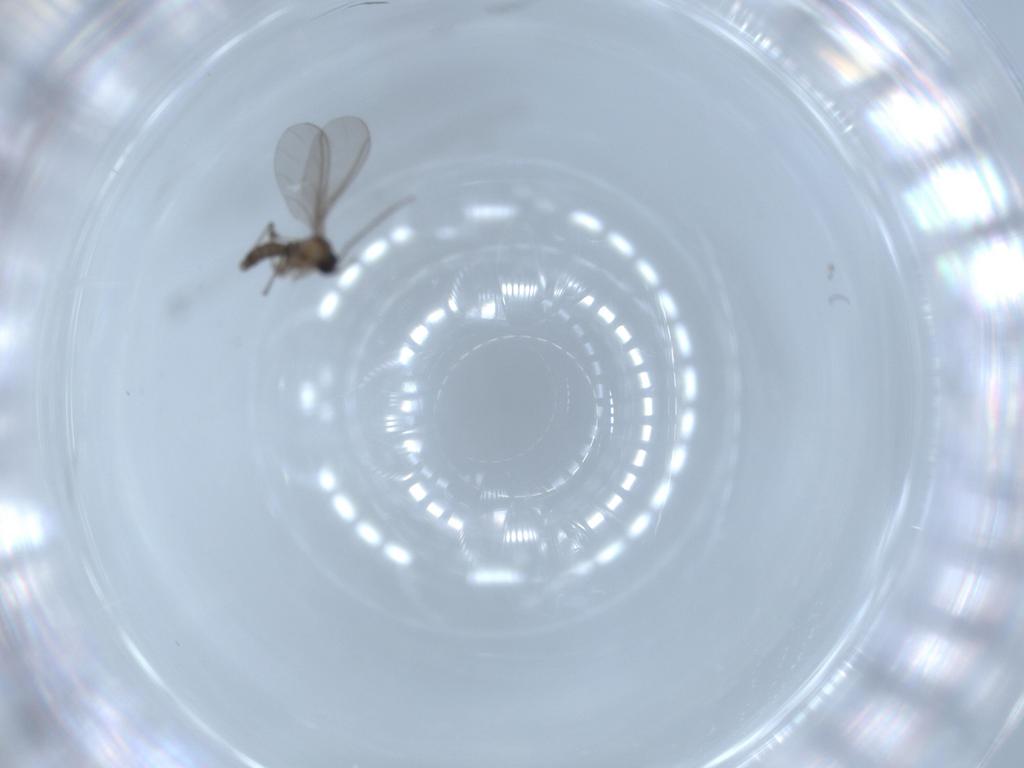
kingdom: Animalia
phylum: Arthropoda
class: Insecta
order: Diptera
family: Sciaridae
